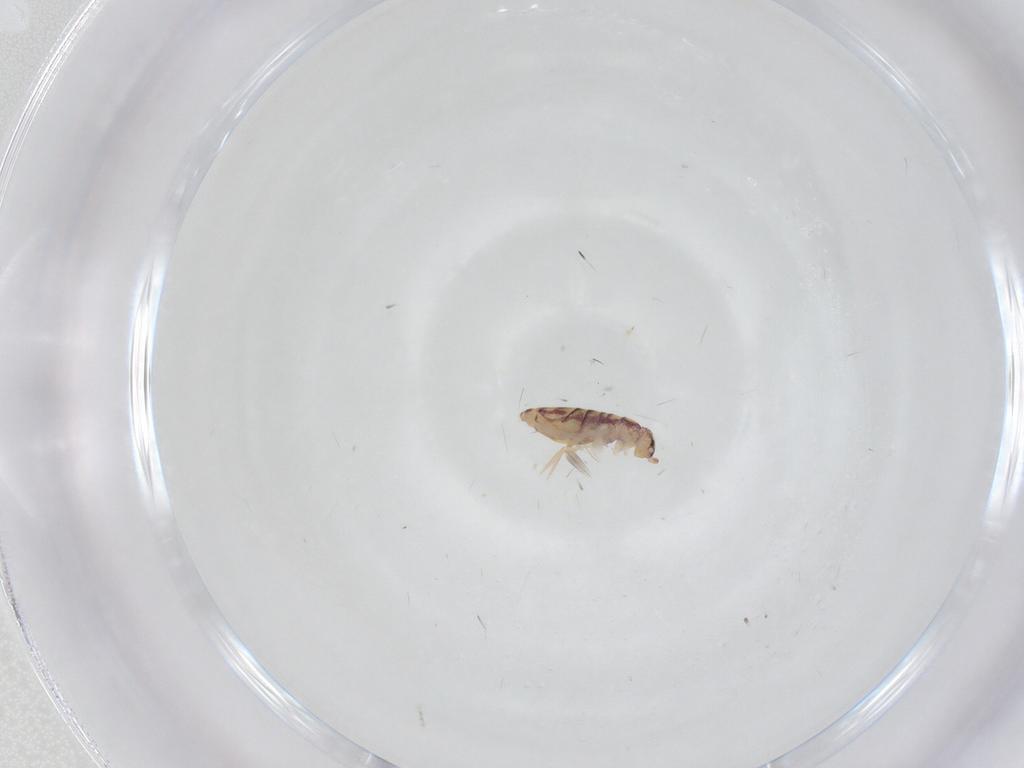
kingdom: Animalia
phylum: Arthropoda
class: Collembola
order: Entomobryomorpha
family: Entomobryidae
